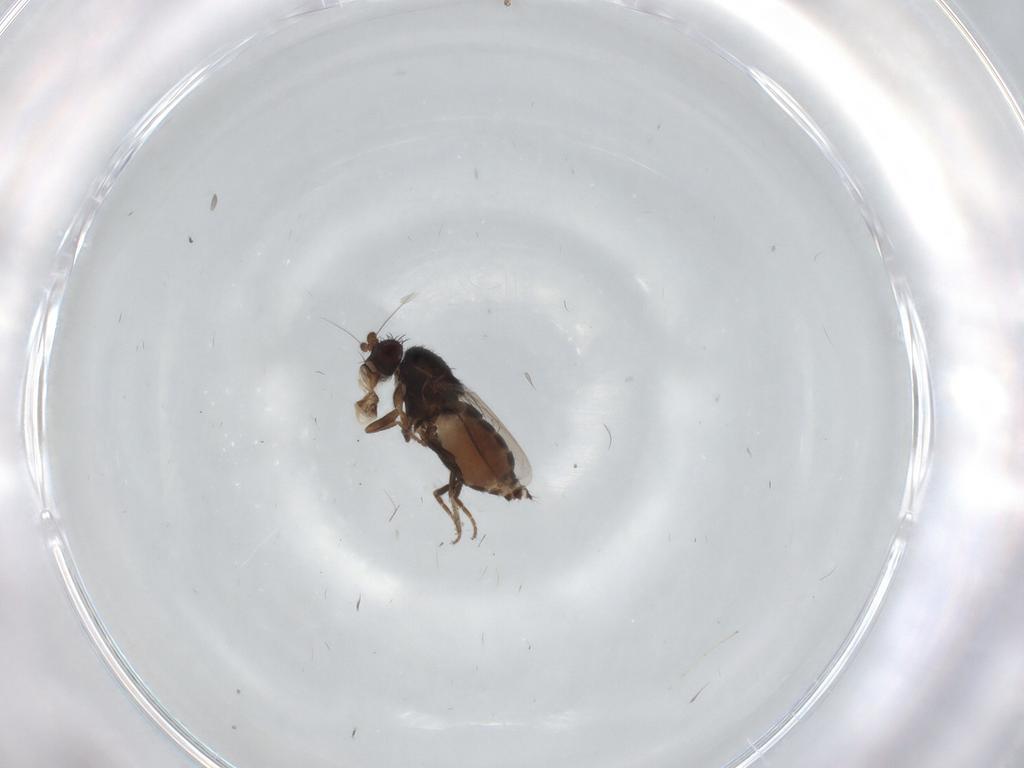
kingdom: Animalia
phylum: Arthropoda
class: Insecta
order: Diptera
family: Sphaeroceridae
